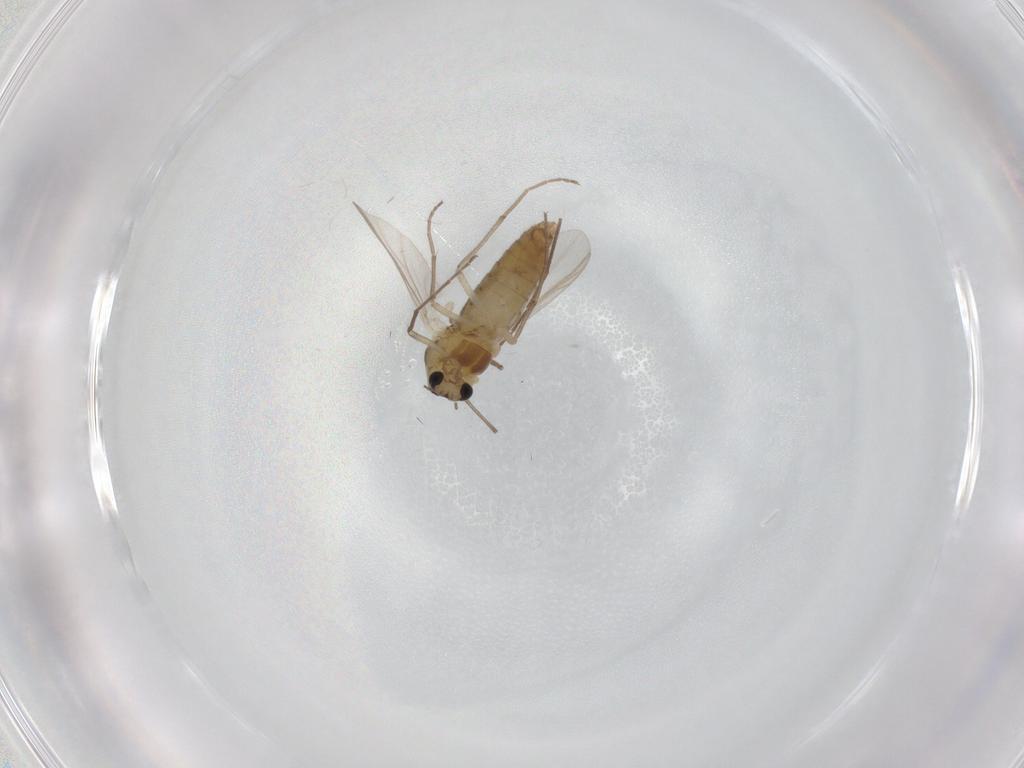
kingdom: Animalia
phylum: Arthropoda
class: Insecta
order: Diptera
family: Chironomidae
